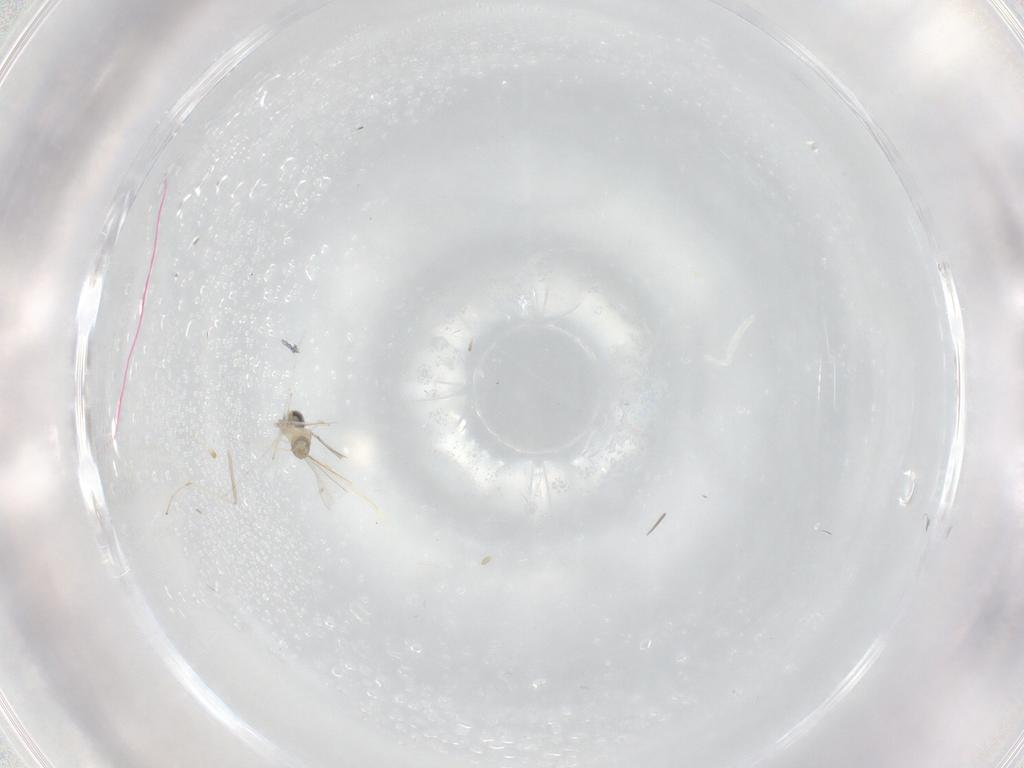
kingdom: Animalia
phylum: Arthropoda
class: Insecta
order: Diptera
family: Cecidomyiidae
